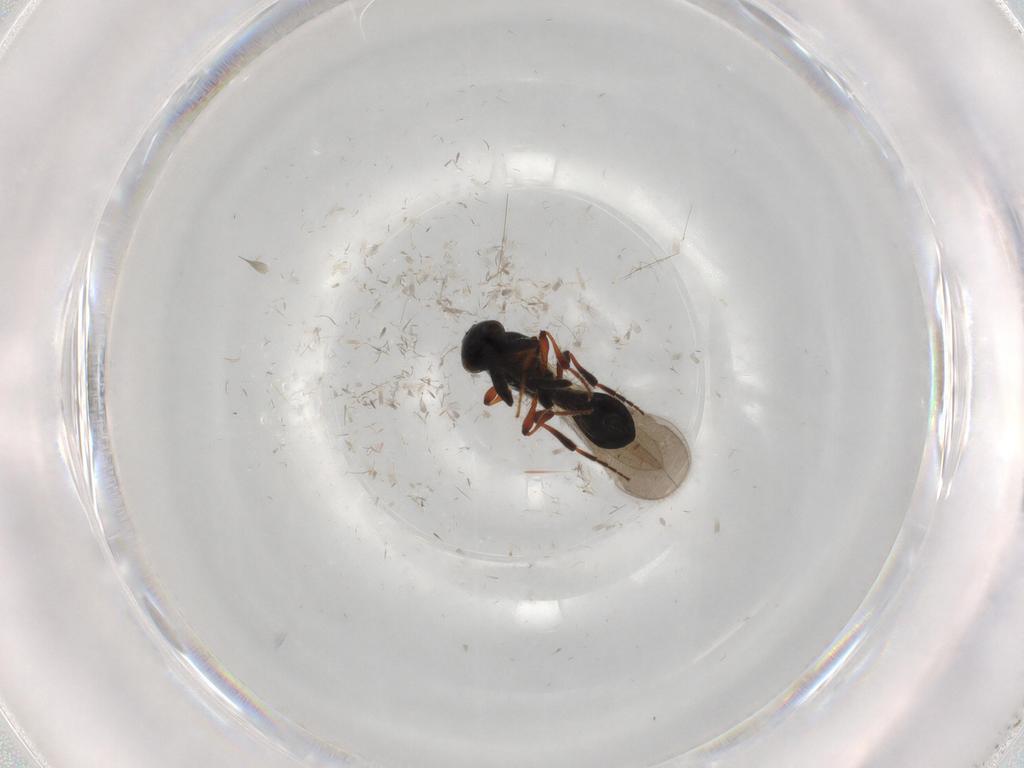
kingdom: Animalia
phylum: Arthropoda
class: Insecta
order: Hymenoptera
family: Platygastridae
